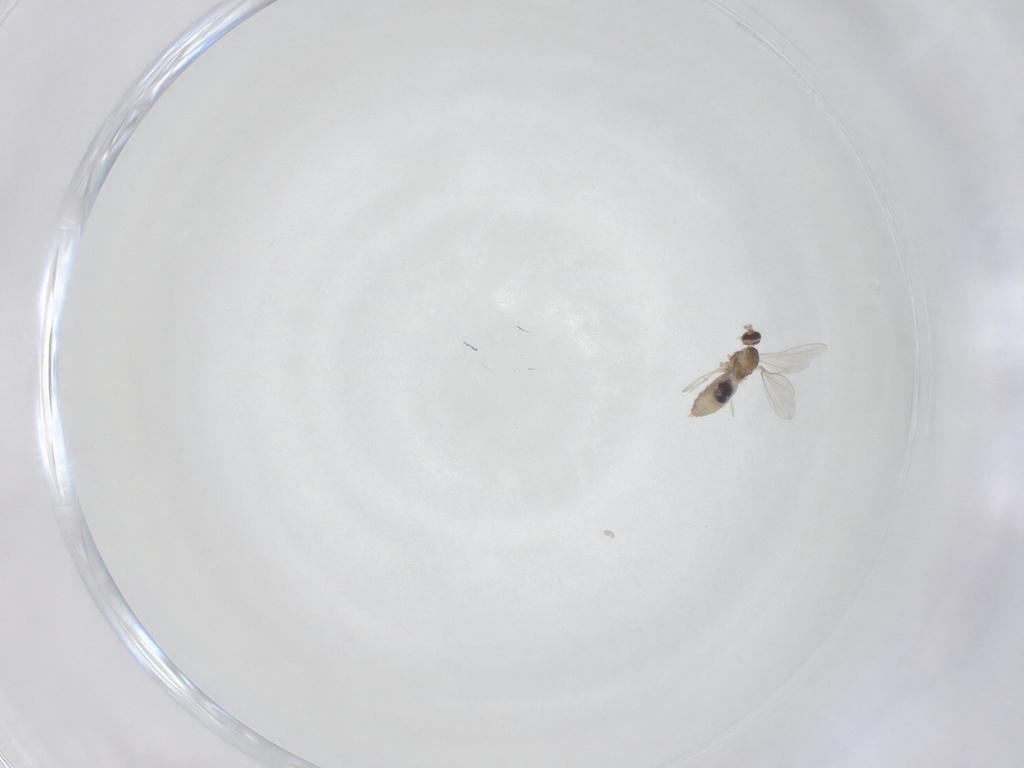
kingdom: Animalia
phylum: Arthropoda
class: Insecta
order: Diptera
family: Cecidomyiidae
